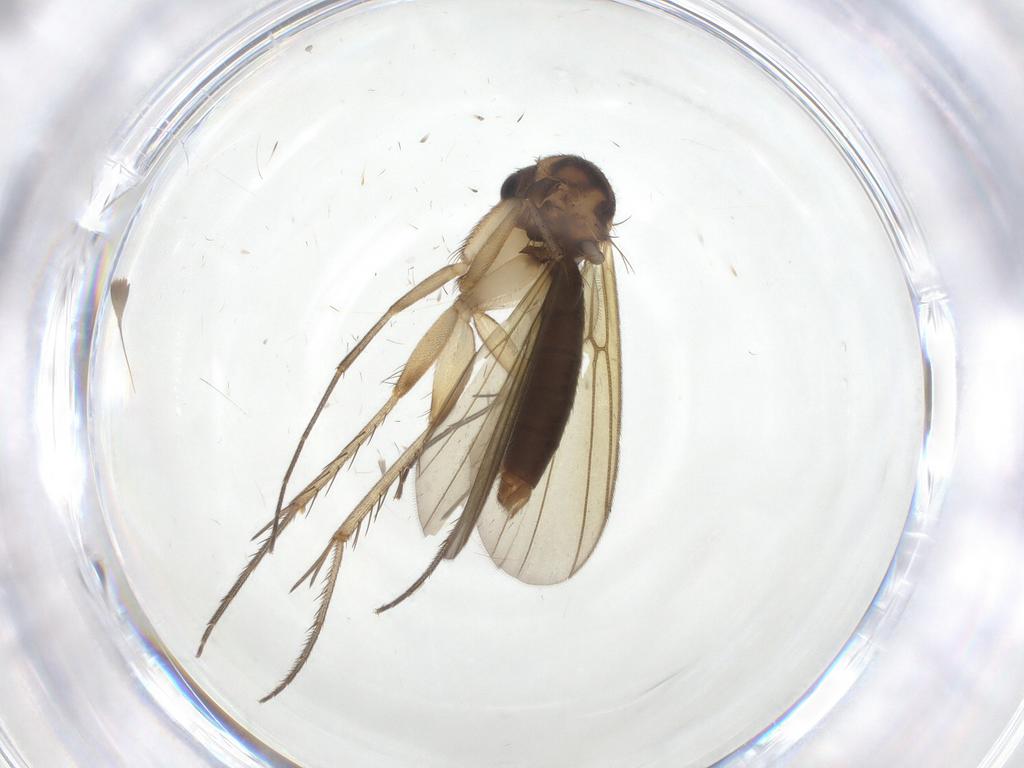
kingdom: Animalia
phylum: Arthropoda
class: Insecta
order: Diptera
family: Mycetophilidae
